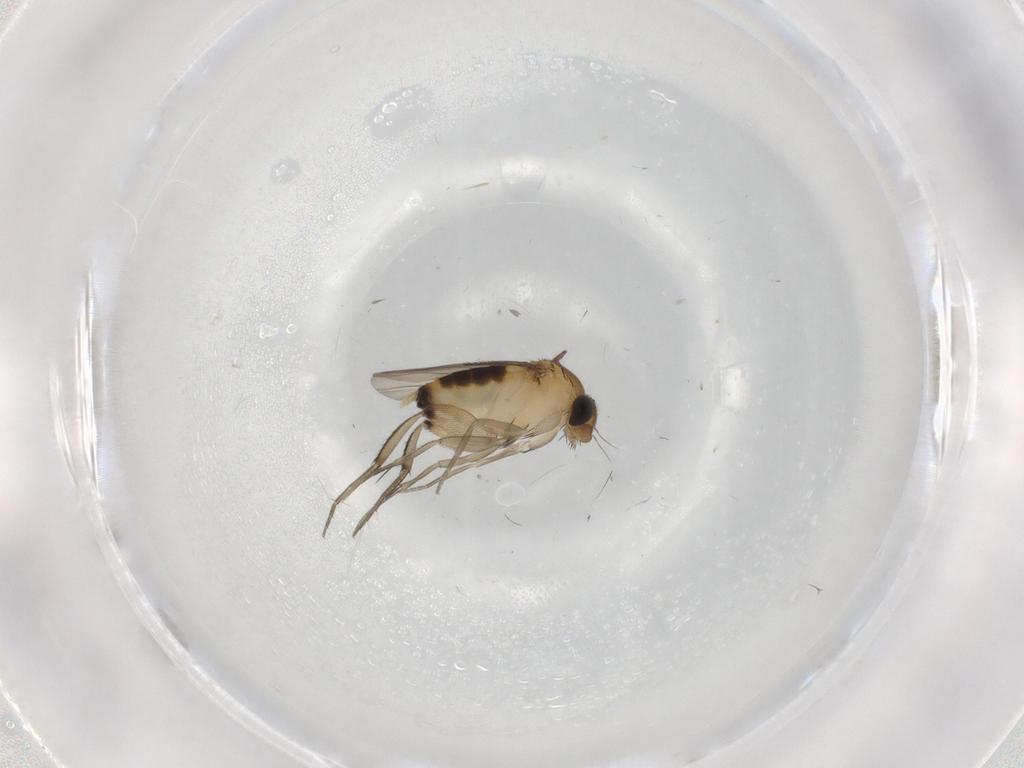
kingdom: Animalia
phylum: Arthropoda
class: Insecta
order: Diptera
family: Phoridae
